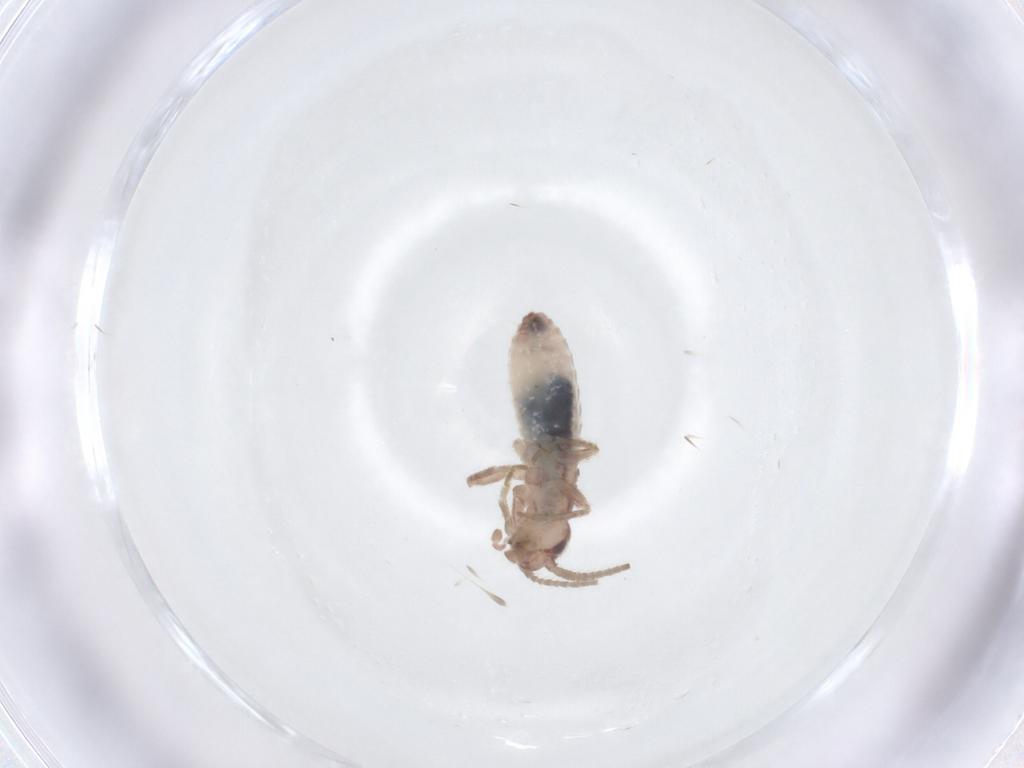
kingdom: Animalia
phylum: Arthropoda
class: Insecta
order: Orthoptera
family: Mogoplistidae
